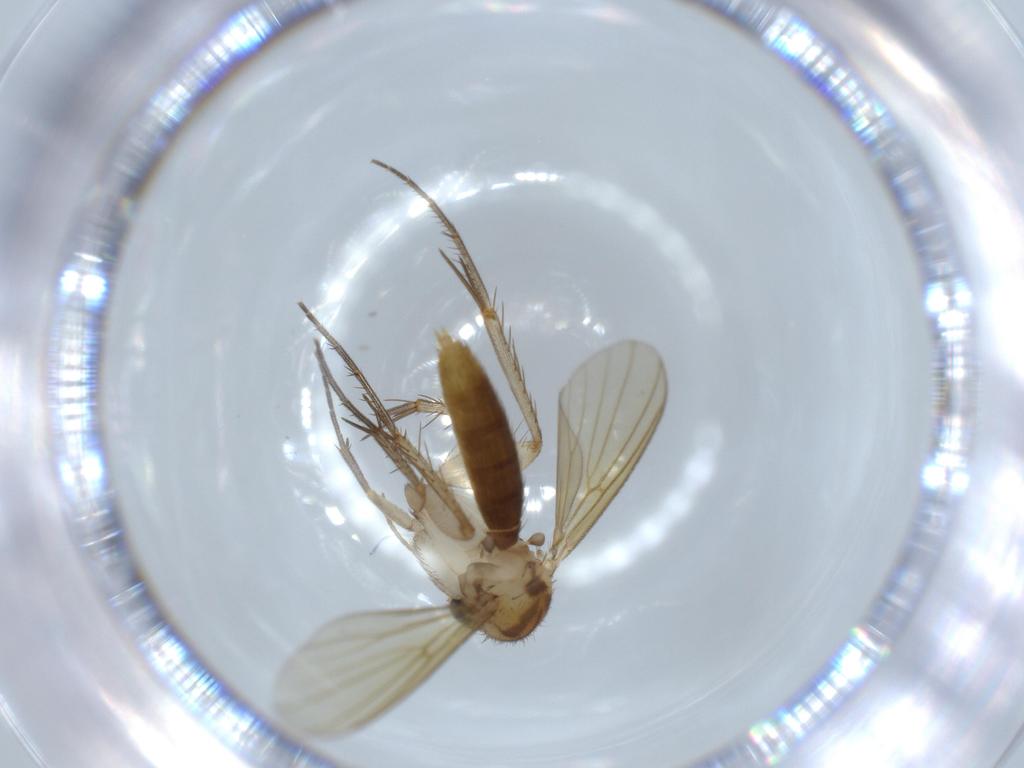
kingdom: Animalia
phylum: Arthropoda
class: Insecta
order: Diptera
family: Mycetophilidae
